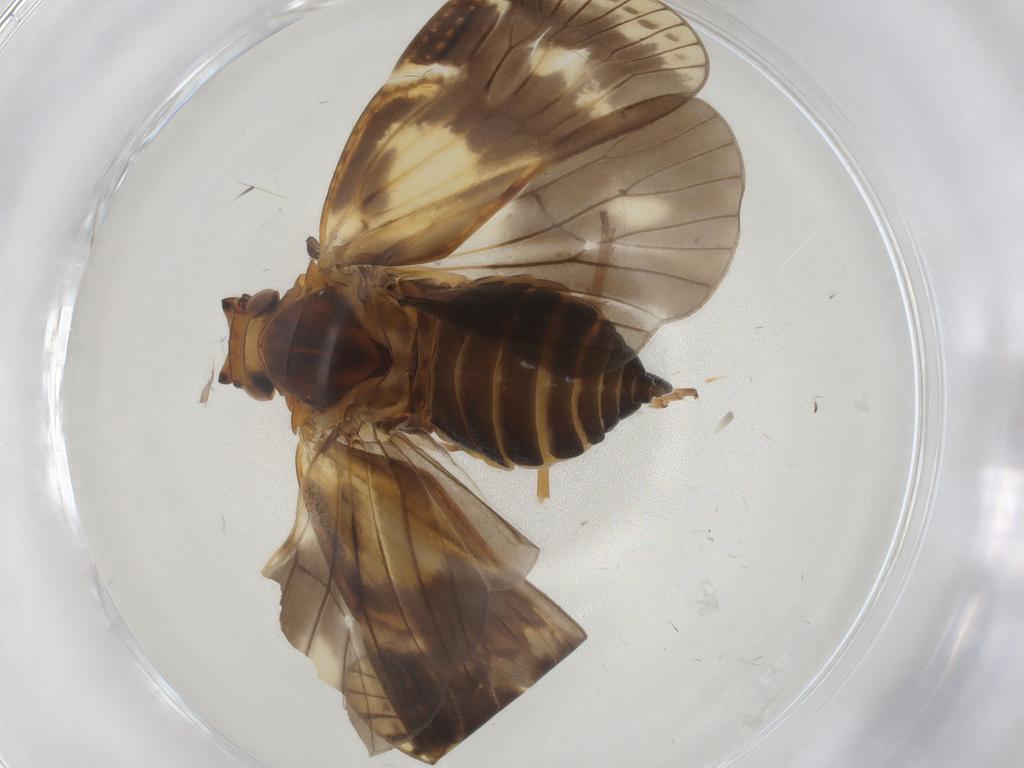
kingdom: Animalia
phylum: Arthropoda
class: Insecta
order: Hemiptera
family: Cixiidae
